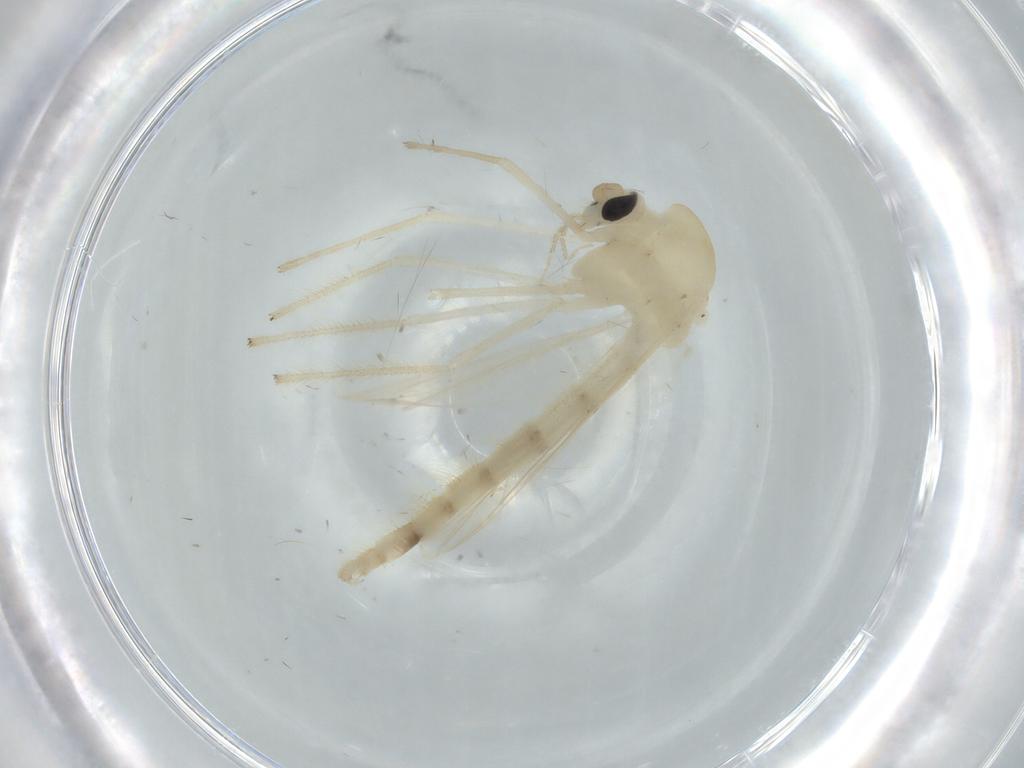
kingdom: Animalia
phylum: Arthropoda
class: Insecta
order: Diptera
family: Chironomidae
